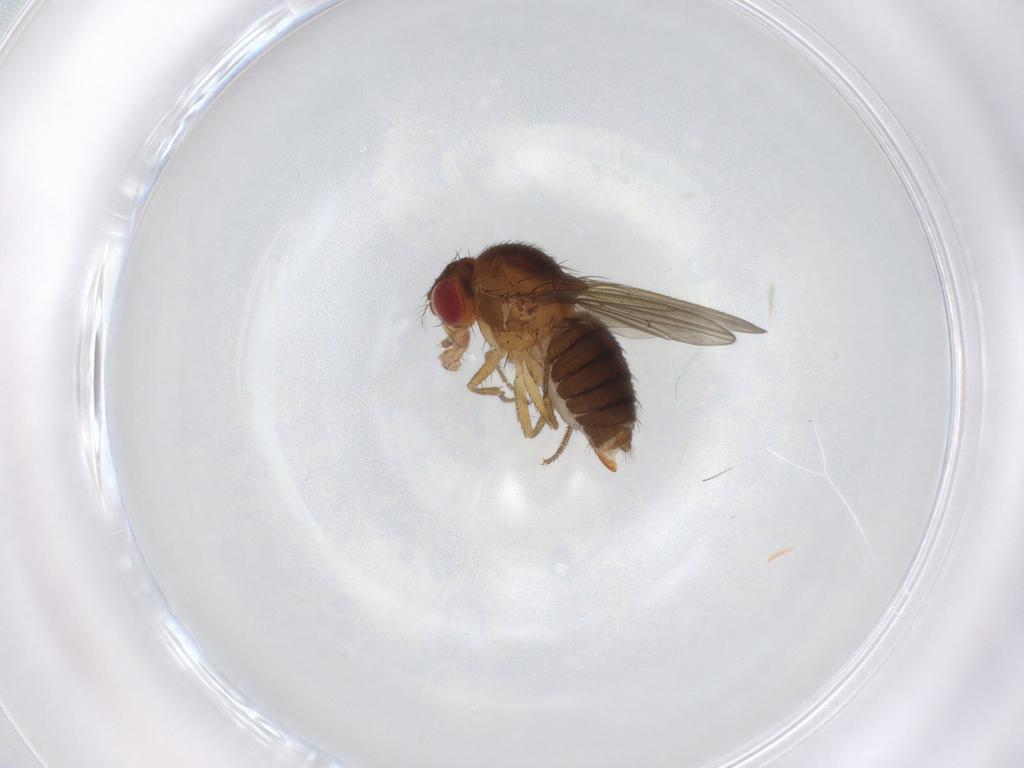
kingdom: Animalia
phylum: Arthropoda
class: Insecta
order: Diptera
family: Drosophilidae
